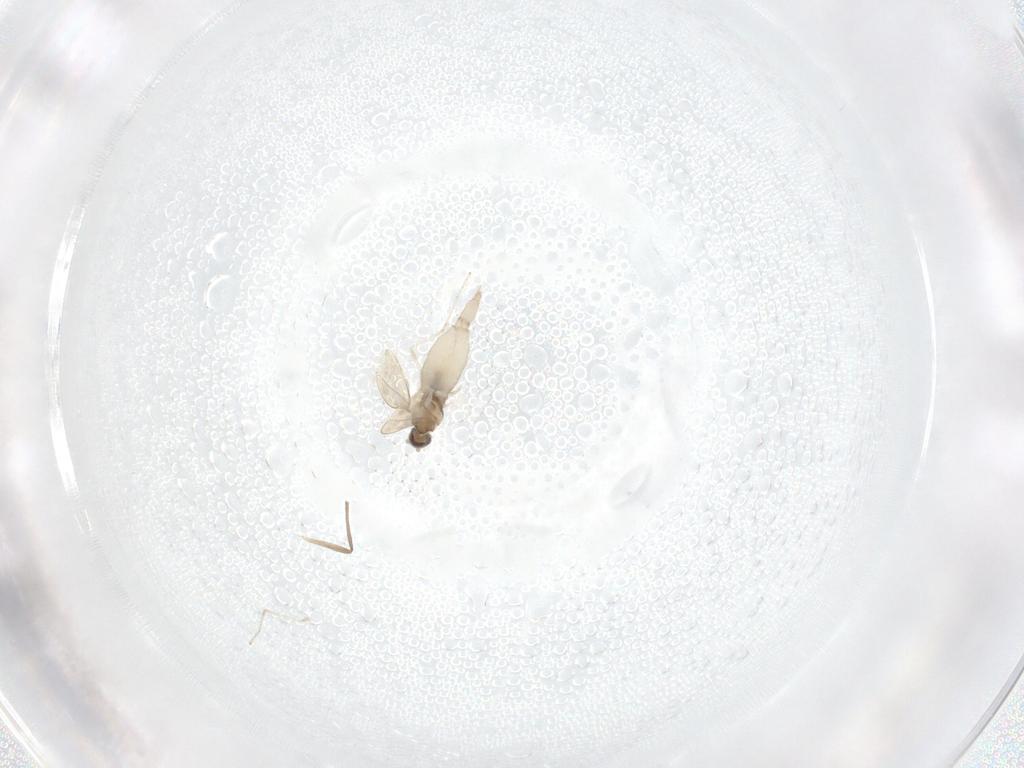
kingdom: Animalia
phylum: Arthropoda
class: Insecta
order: Diptera
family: Cecidomyiidae
